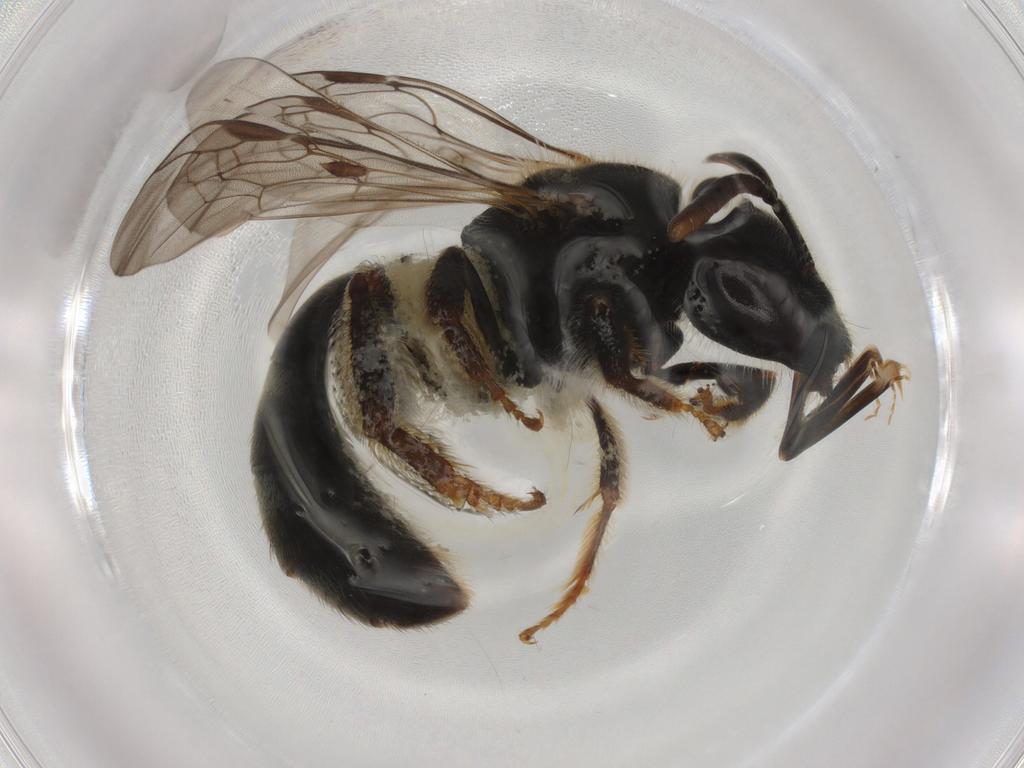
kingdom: Animalia
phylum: Arthropoda
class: Insecta
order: Hymenoptera
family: Halictidae
